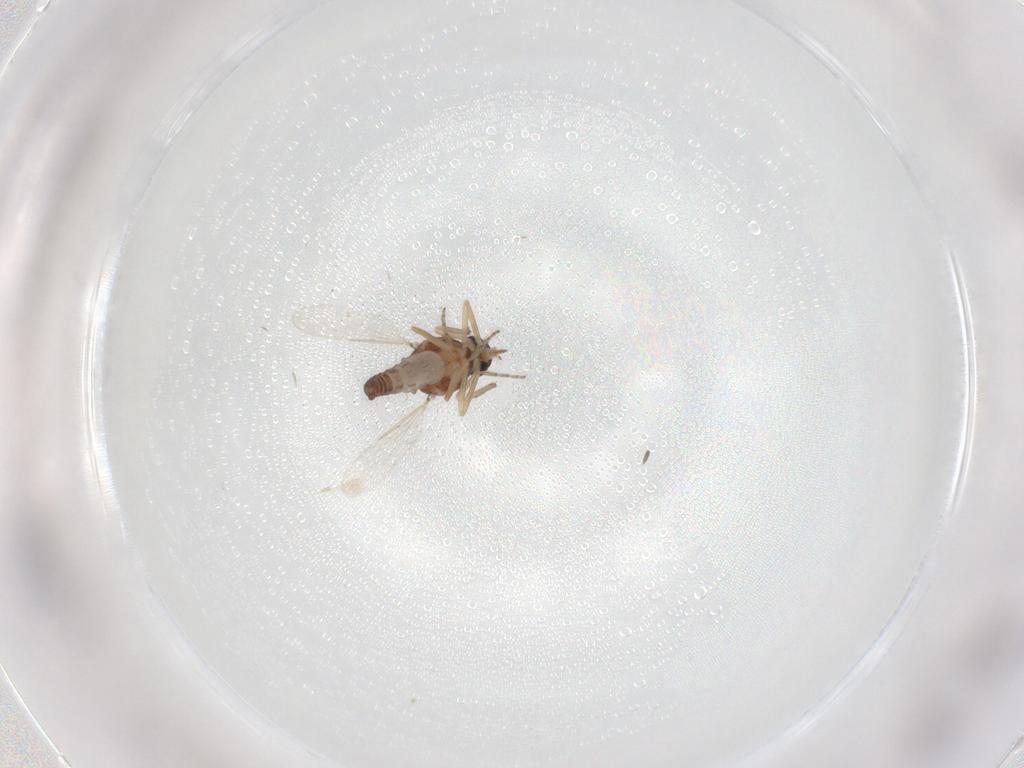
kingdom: Animalia
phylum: Arthropoda
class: Insecta
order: Diptera
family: Ceratopogonidae
